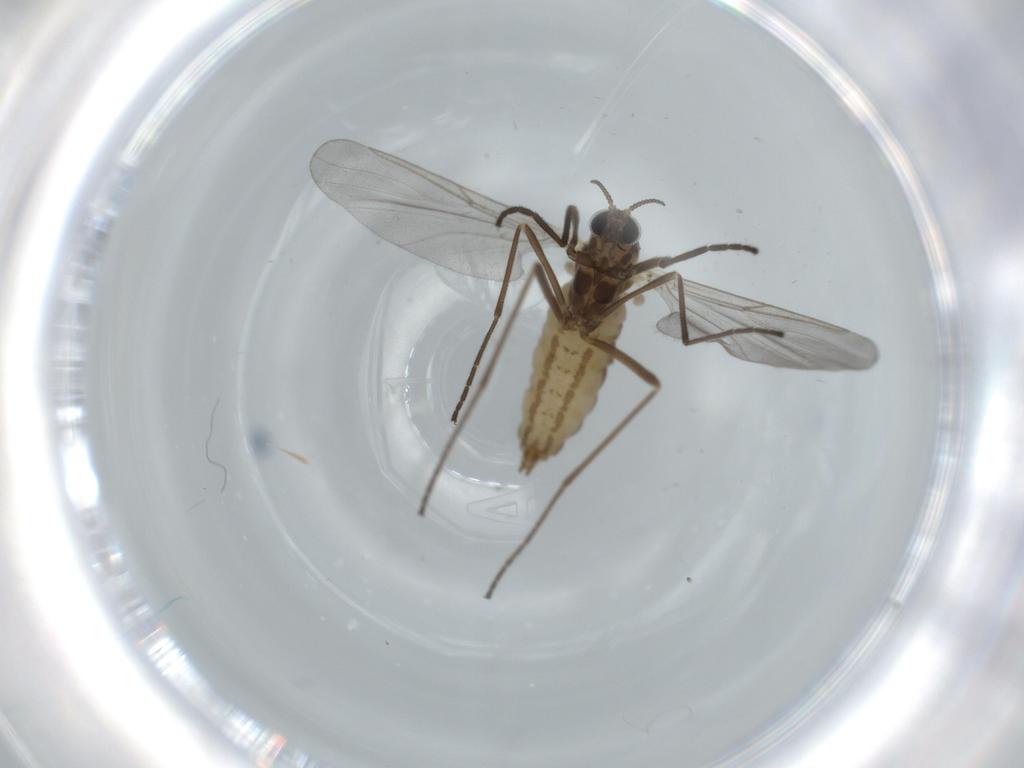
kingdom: Animalia
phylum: Arthropoda
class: Insecta
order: Diptera
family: Cecidomyiidae
